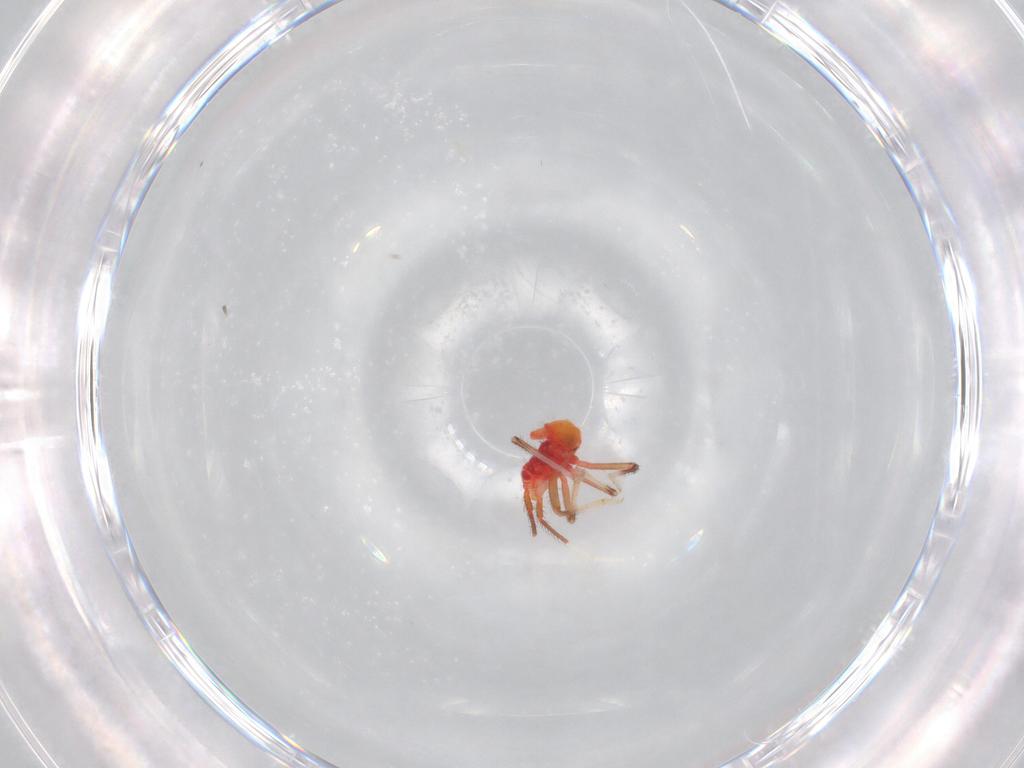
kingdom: Animalia
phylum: Arthropoda
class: Insecta
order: Hemiptera
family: Miridae
